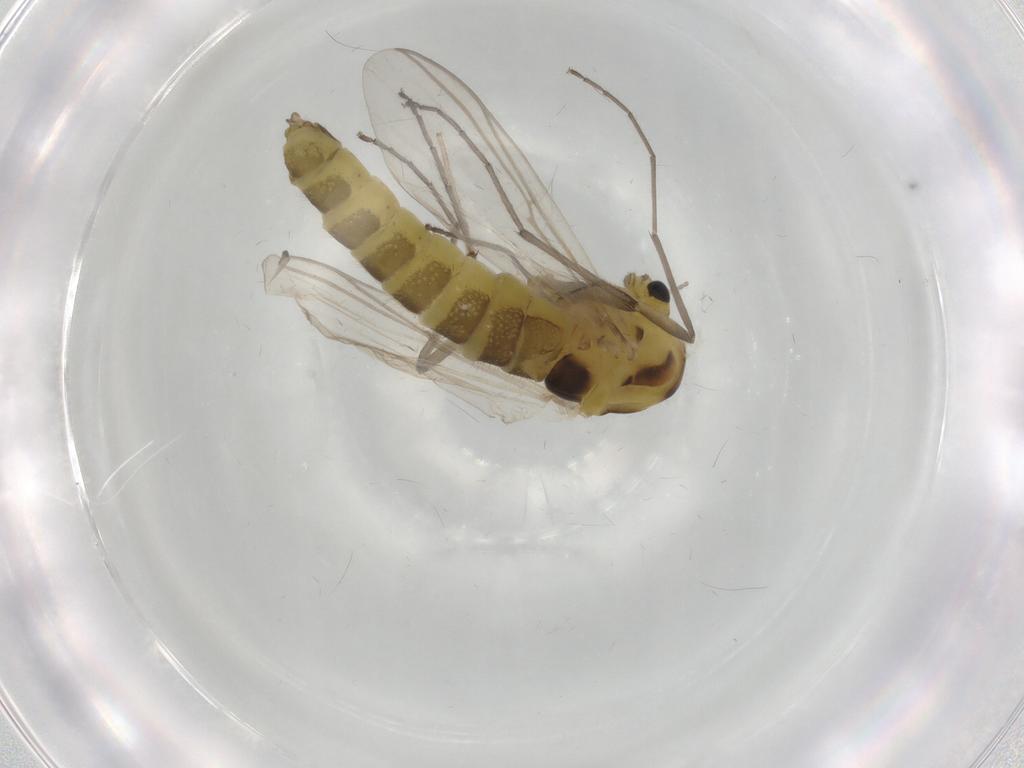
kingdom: Animalia
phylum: Arthropoda
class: Insecta
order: Diptera
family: Chironomidae
